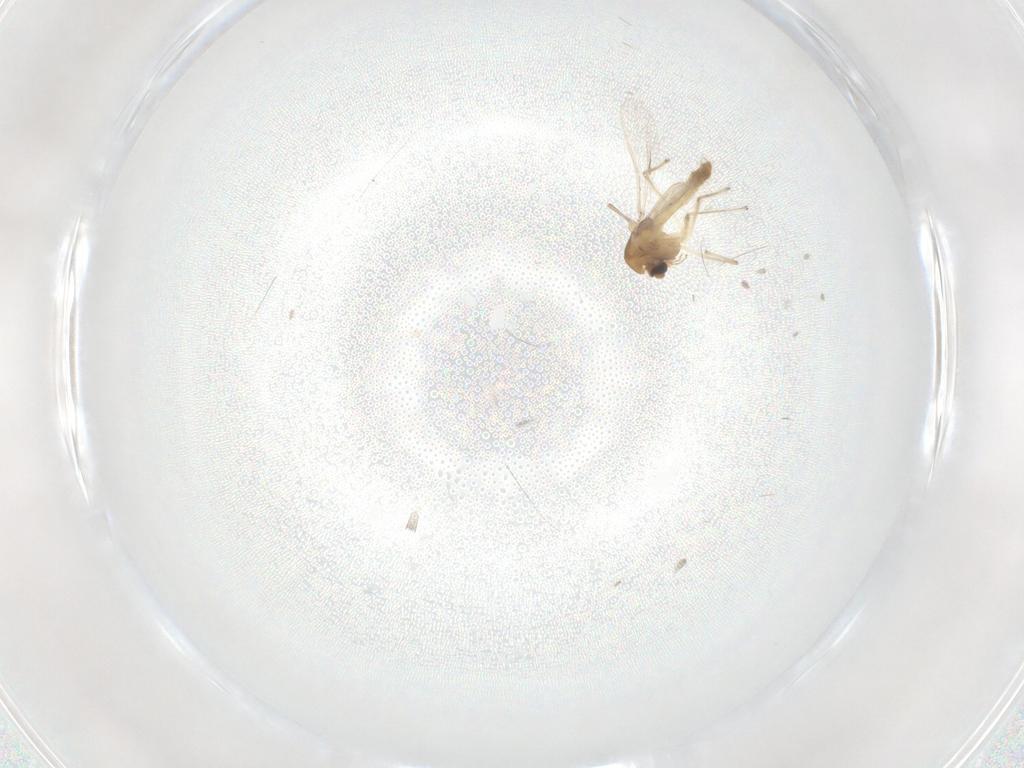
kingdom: Animalia
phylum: Arthropoda
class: Insecta
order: Diptera
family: Chironomidae
